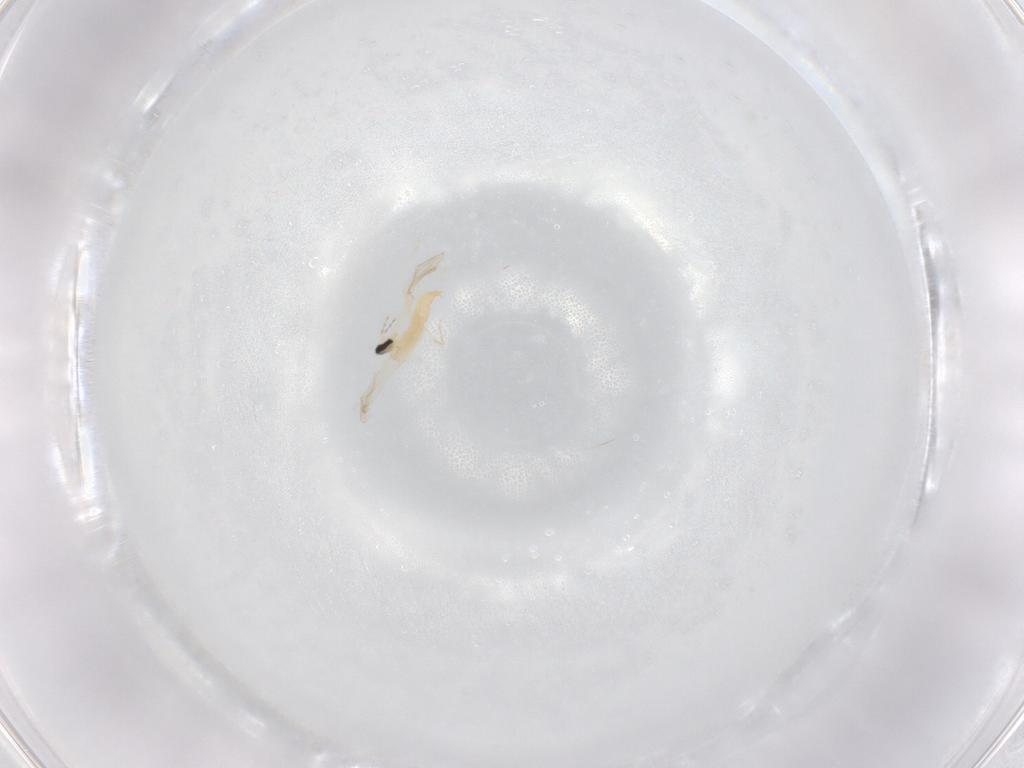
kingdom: Animalia
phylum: Arthropoda
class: Insecta
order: Diptera
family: Cecidomyiidae
